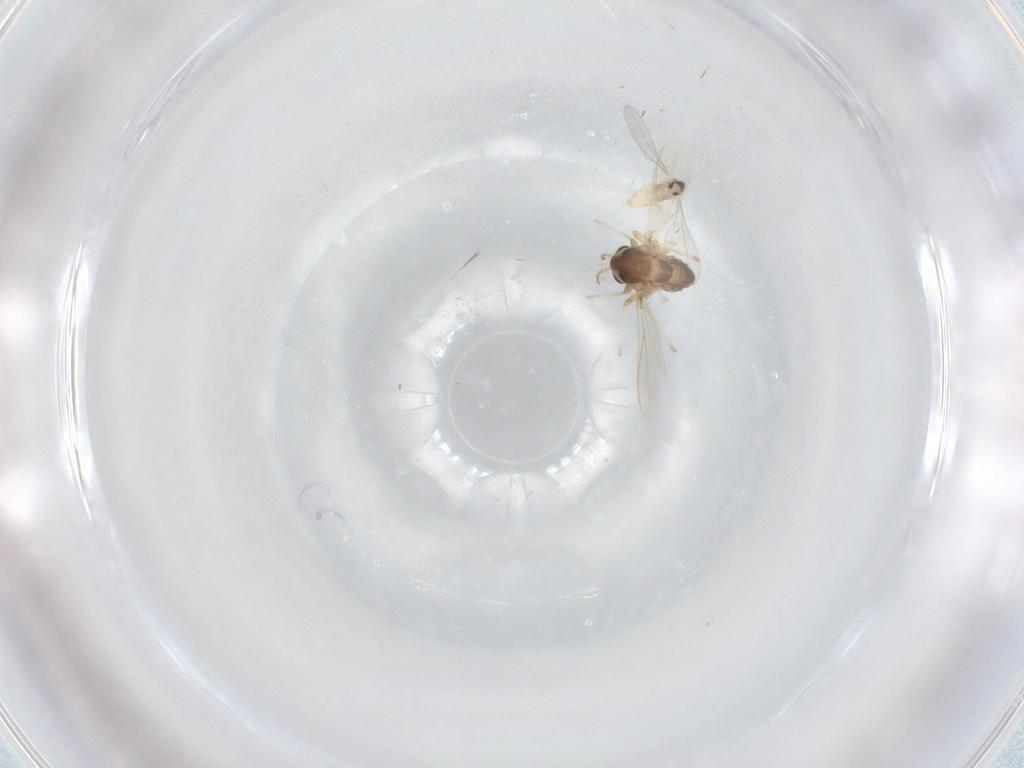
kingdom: Animalia
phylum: Arthropoda
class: Insecta
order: Diptera
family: Cecidomyiidae
